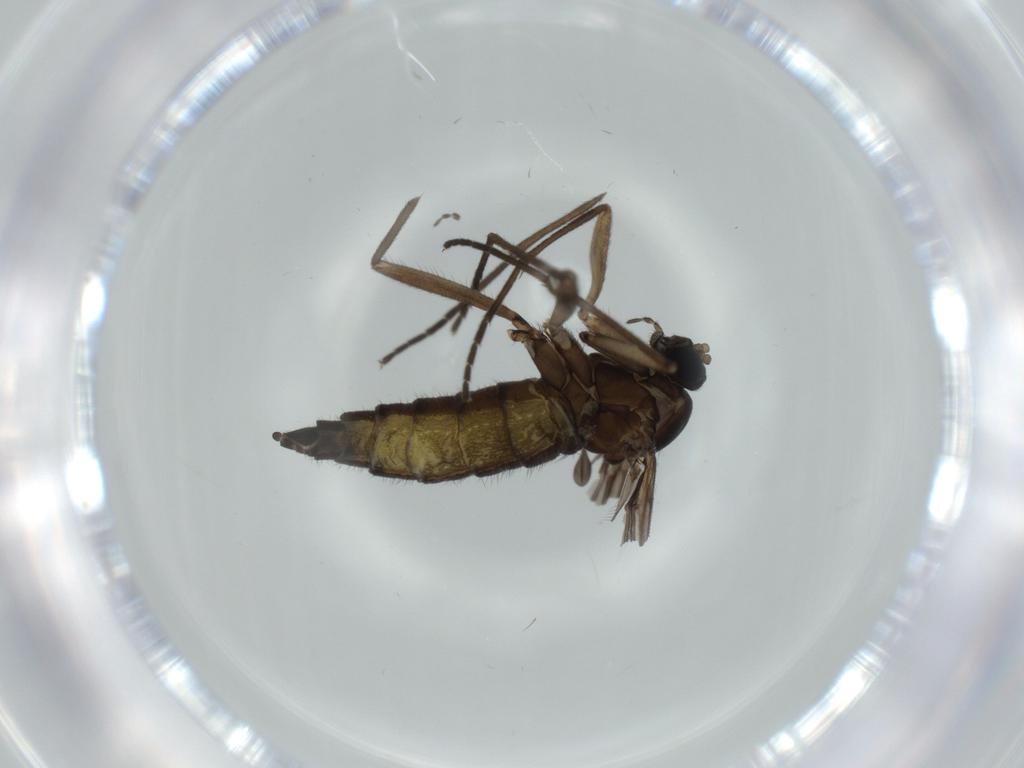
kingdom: Animalia
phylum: Arthropoda
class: Insecta
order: Diptera
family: Sciaridae
